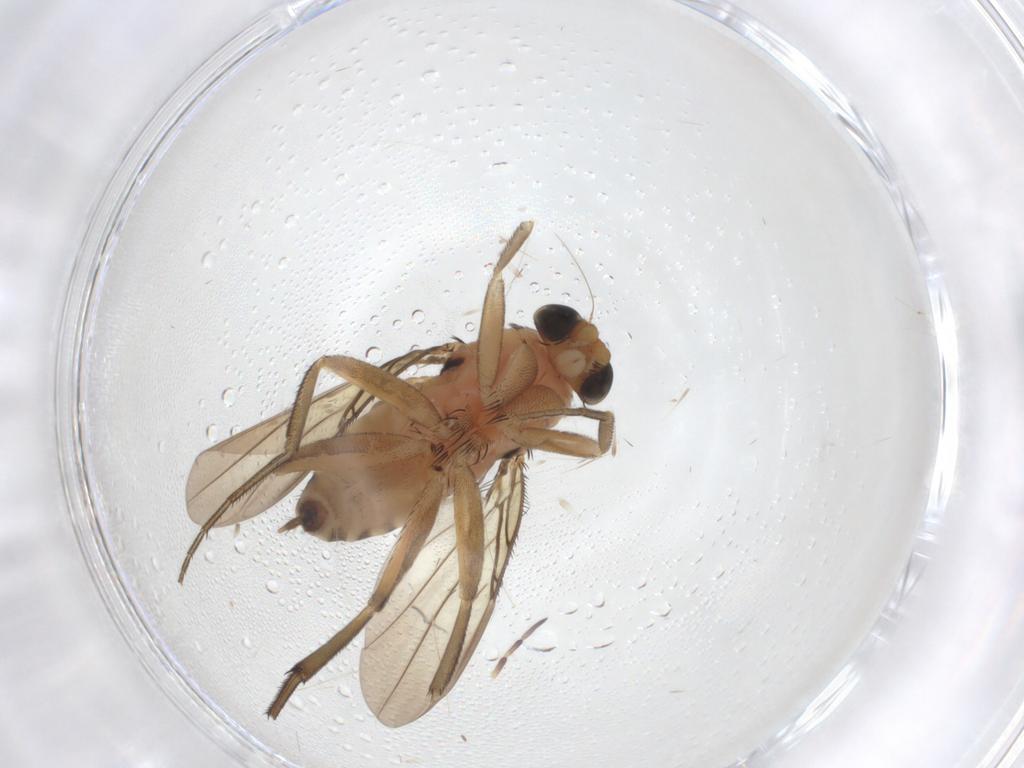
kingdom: Animalia
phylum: Arthropoda
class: Insecta
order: Diptera
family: Phoridae
